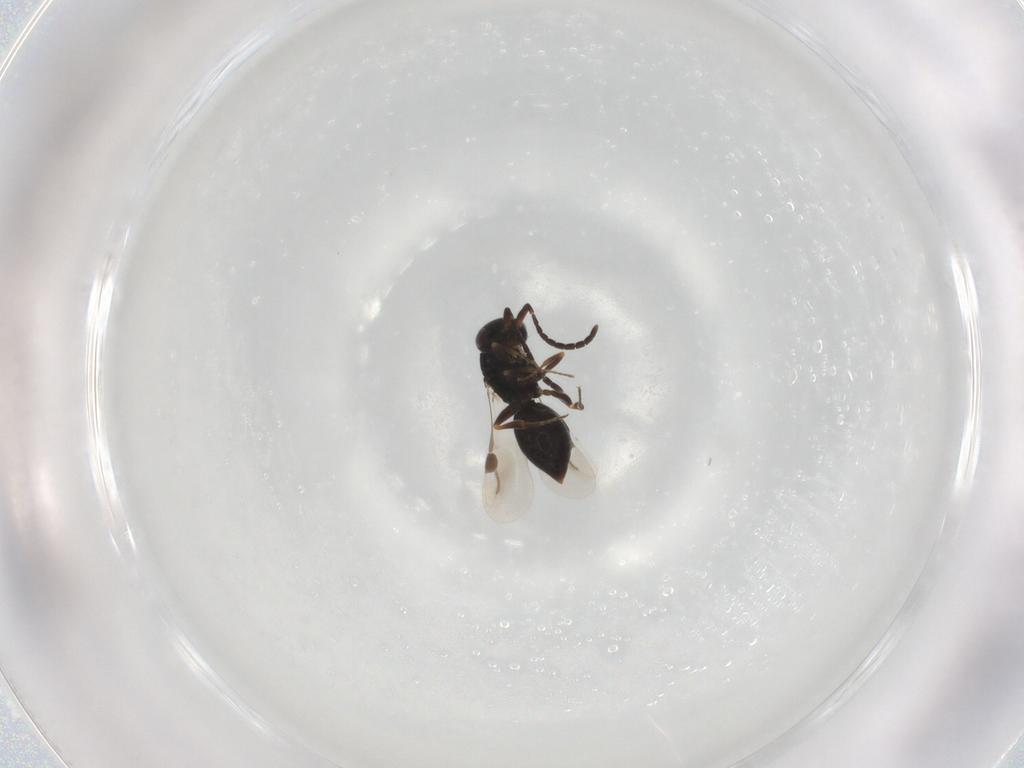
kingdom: Animalia
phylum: Arthropoda
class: Insecta
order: Hymenoptera
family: Megaspilidae
